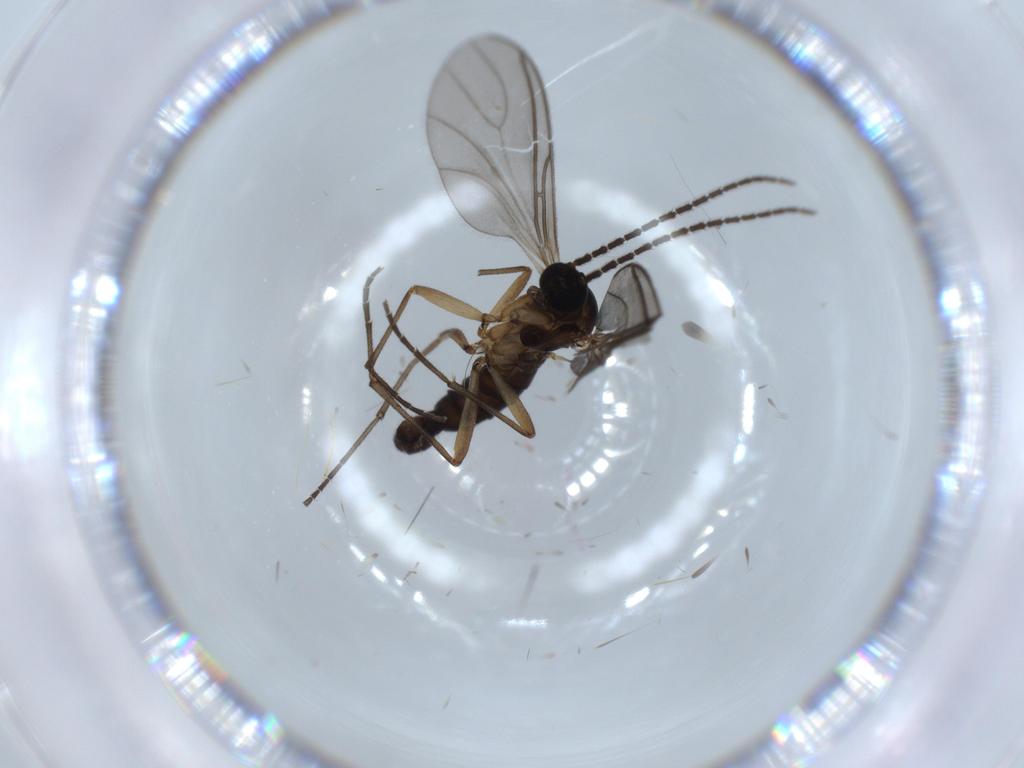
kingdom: Animalia
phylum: Arthropoda
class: Insecta
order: Diptera
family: Sciaridae
